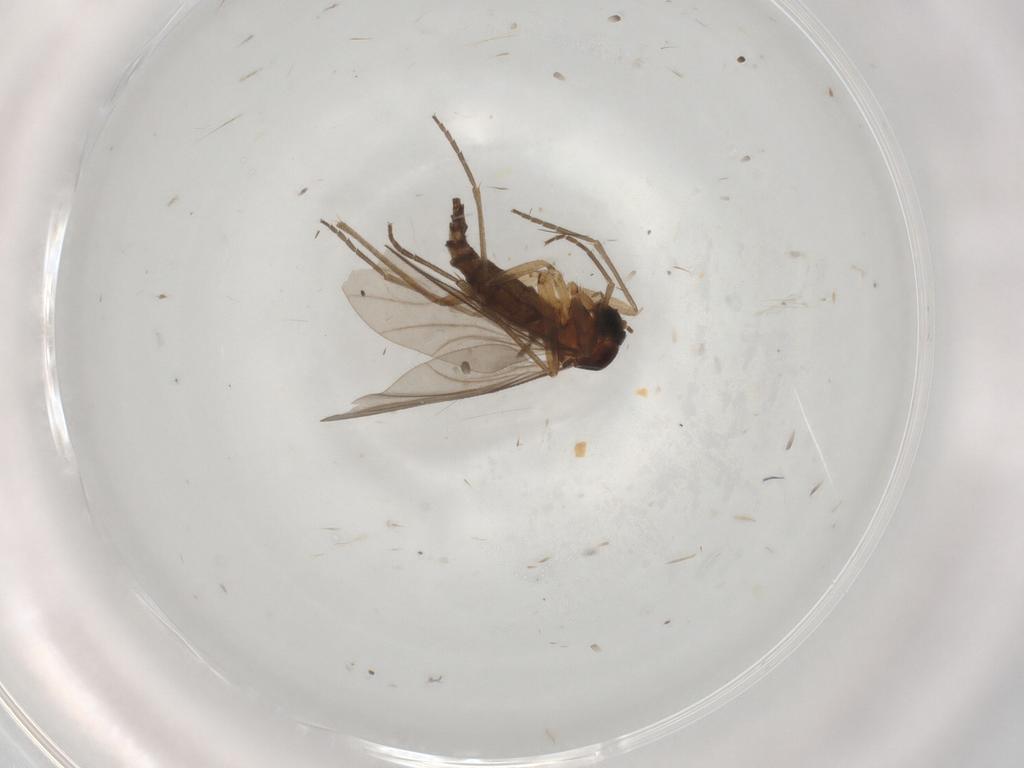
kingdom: Animalia
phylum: Arthropoda
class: Insecta
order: Diptera
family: Sciaridae
